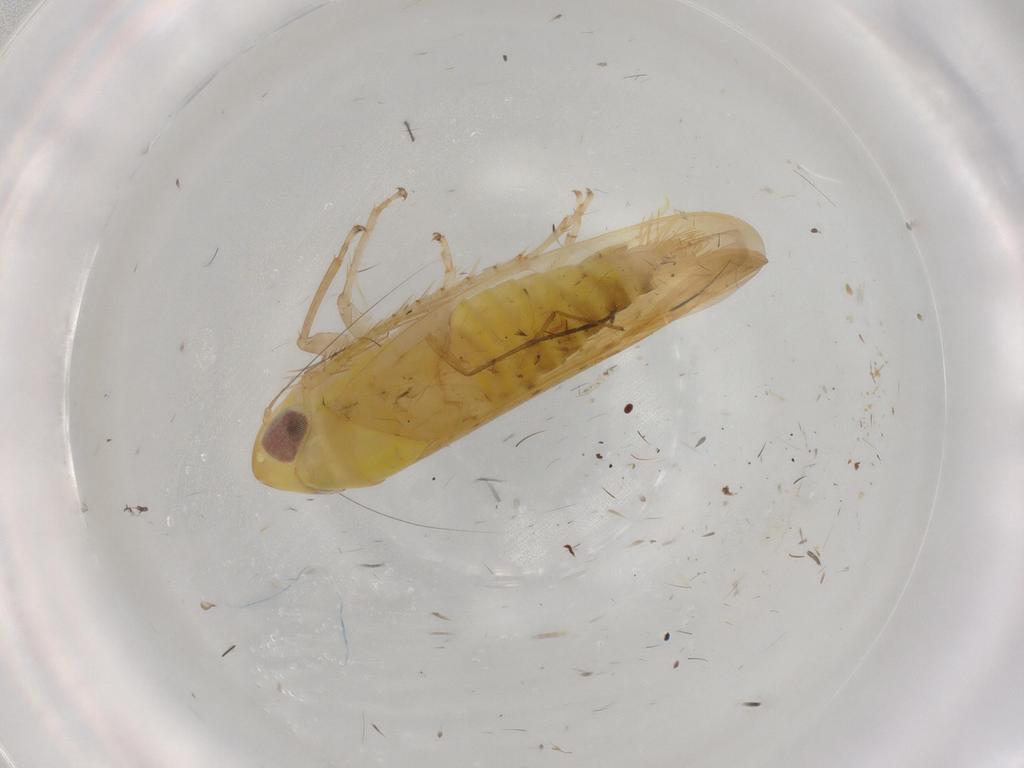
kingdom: Animalia
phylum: Arthropoda
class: Insecta
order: Hemiptera
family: Cicadellidae
